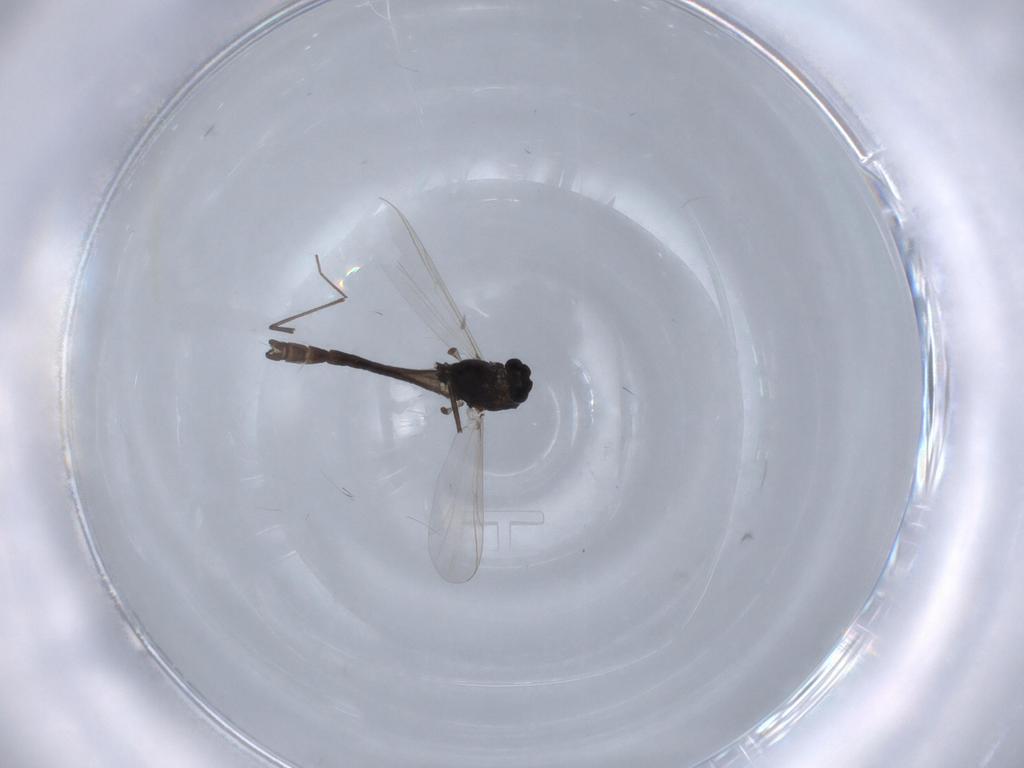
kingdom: Animalia
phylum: Arthropoda
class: Insecta
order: Diptera
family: Chironomidae
